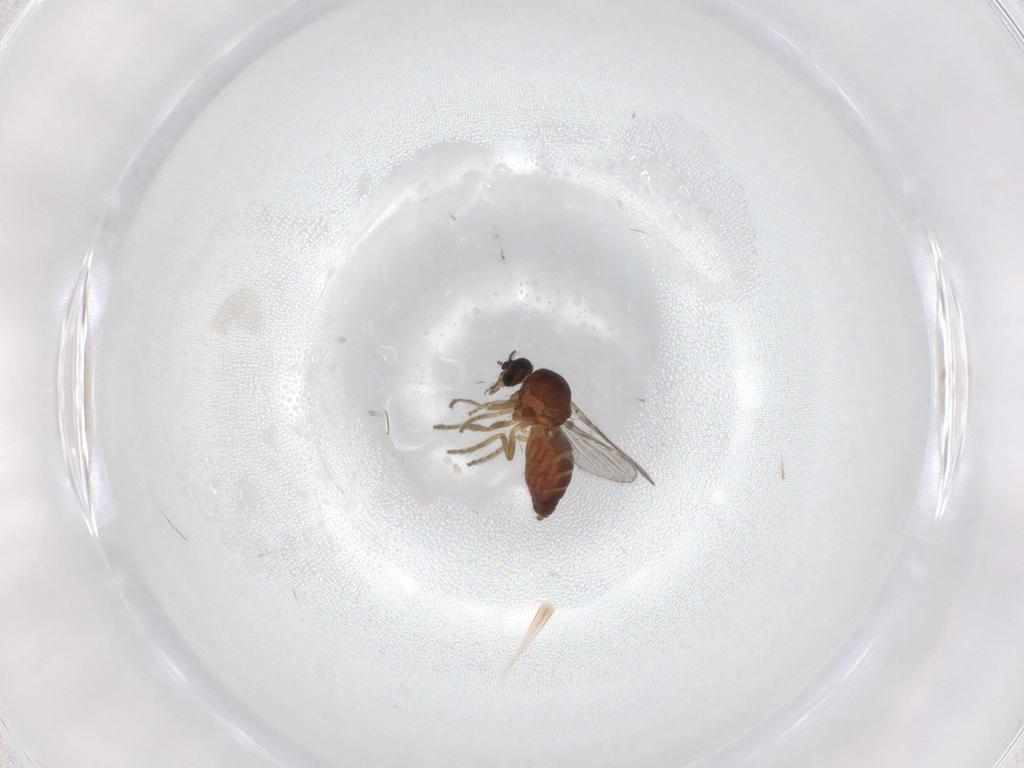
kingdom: Animalia
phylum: Arthropoda
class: Insecta
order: Diptera
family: Ceratopogonidae
